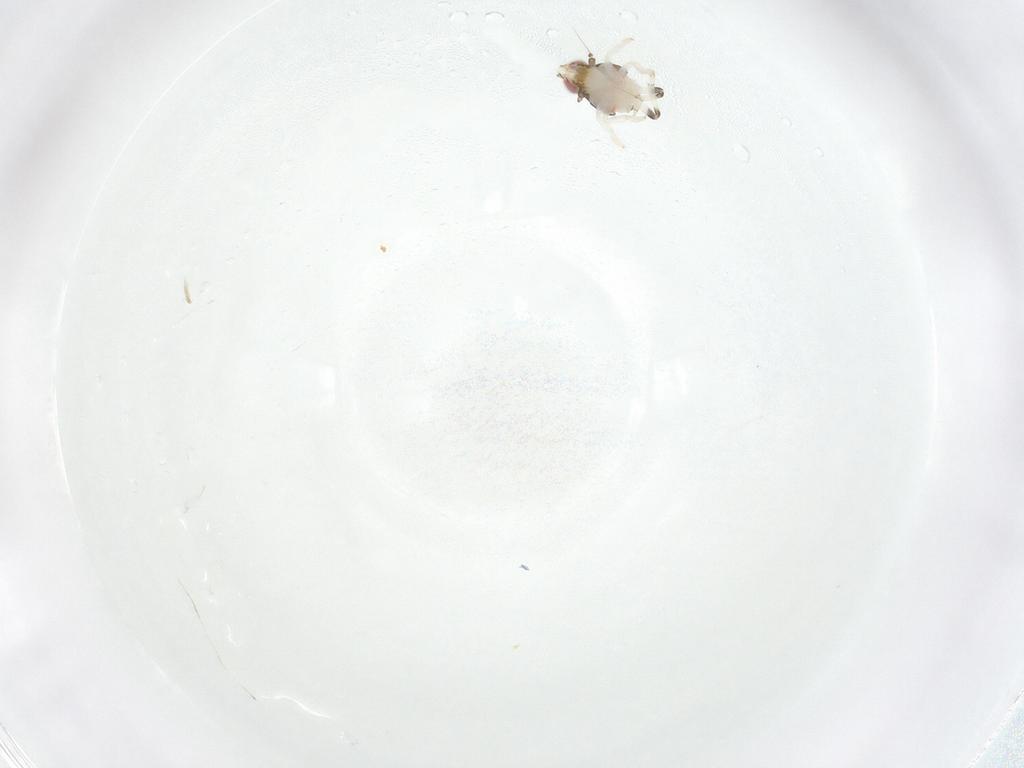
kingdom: Animalia
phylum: Arthropoda
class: Insecta
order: Hemiptera
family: Nogodinidae
